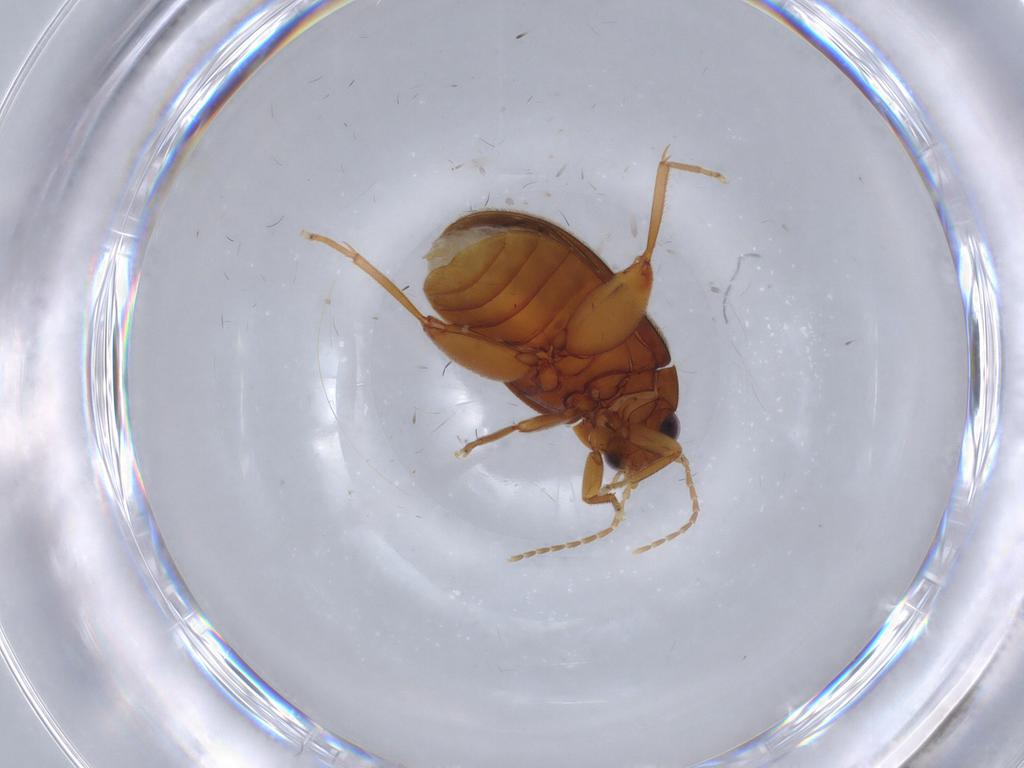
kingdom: Animalia
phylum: Arthropoda
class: Insecta
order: Coleoptera
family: Scirtidae
